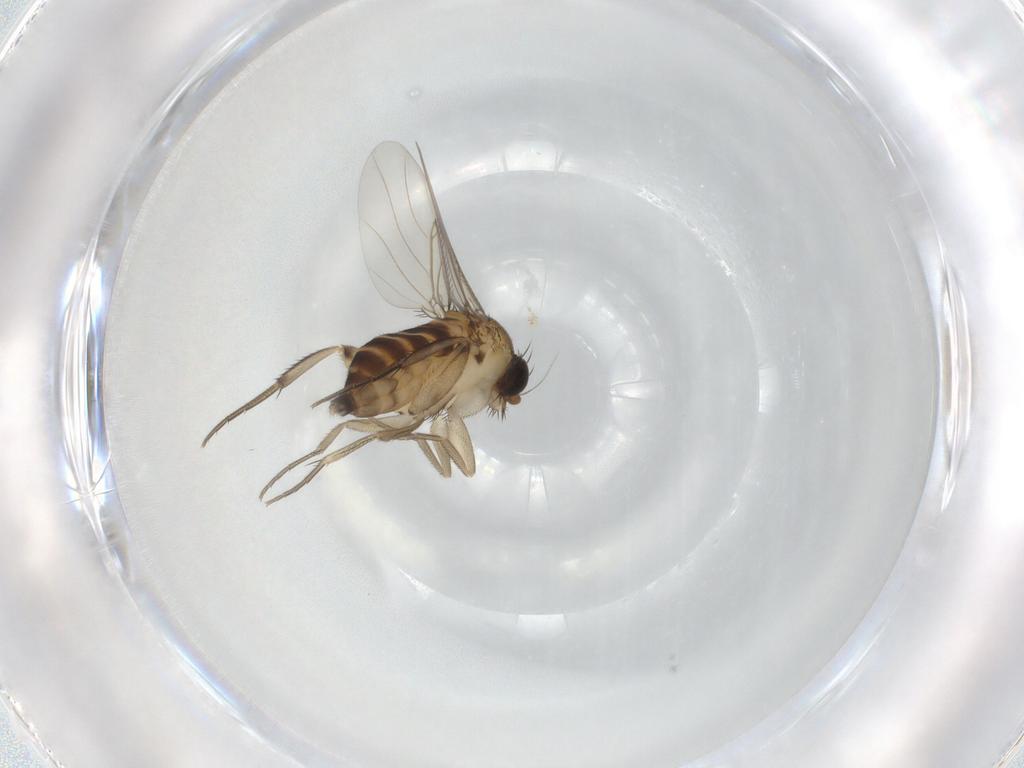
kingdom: Animalia
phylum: Arthropoda
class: Insecta
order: Diptera
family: Phoridae
